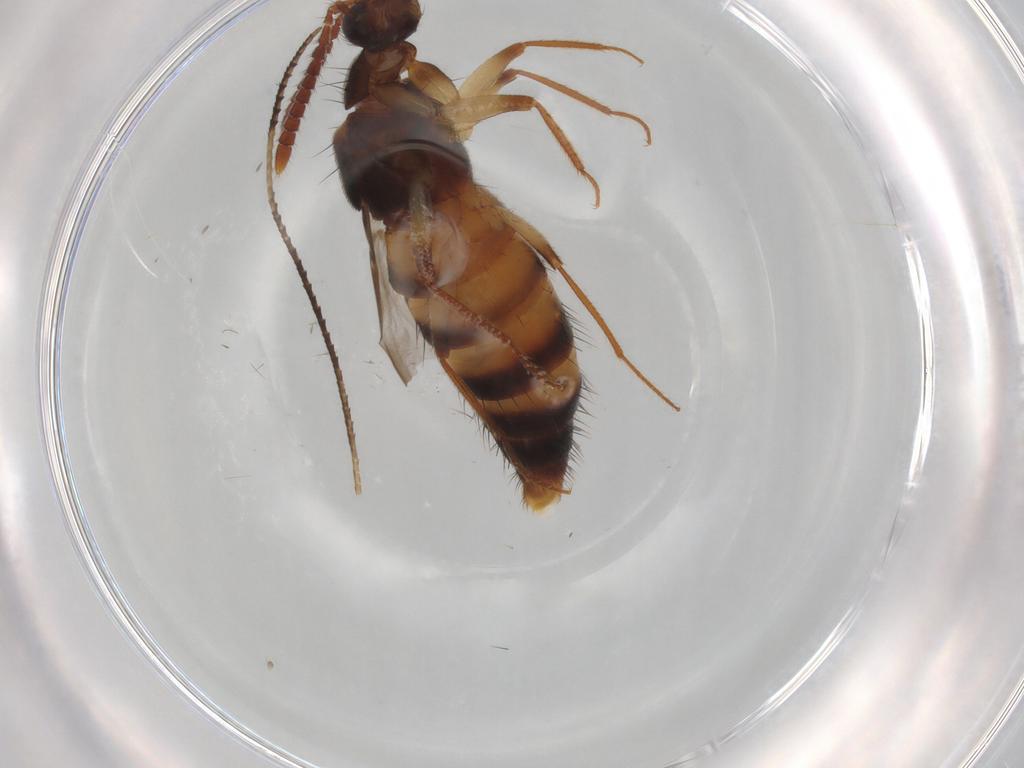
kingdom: Animalia
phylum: Arthropoda
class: Insecta
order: Coleoptera
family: Staphylinidae
